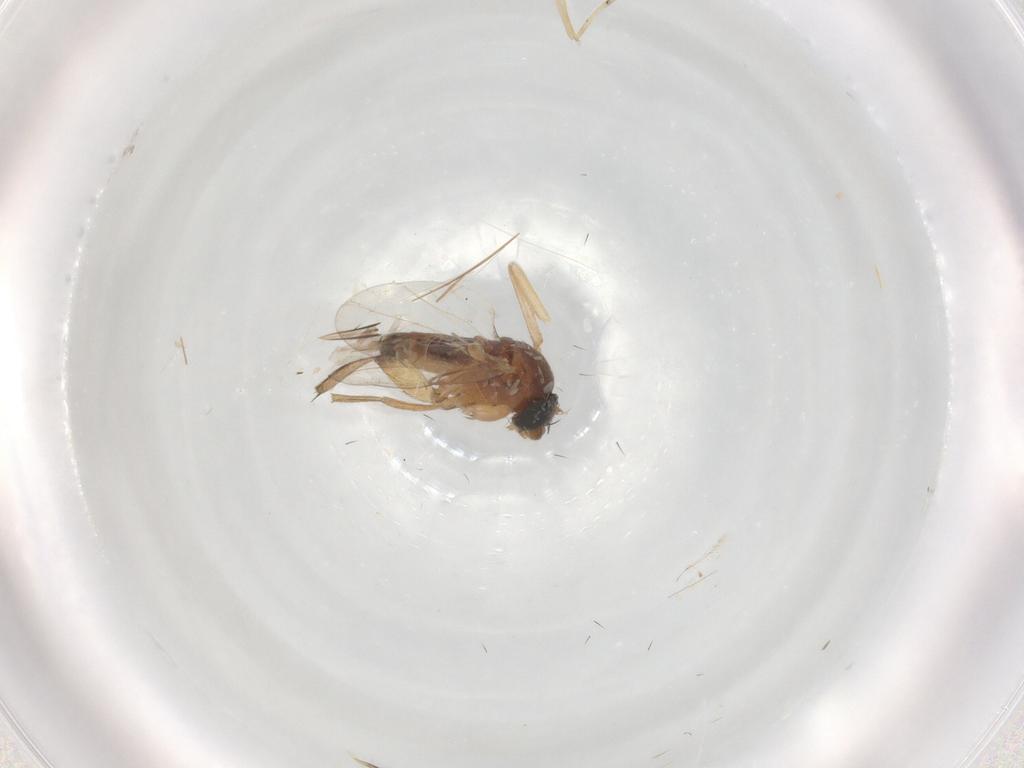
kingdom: Animalia
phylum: Arthropoda
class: Insecta
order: Diptera
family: Phoridae
